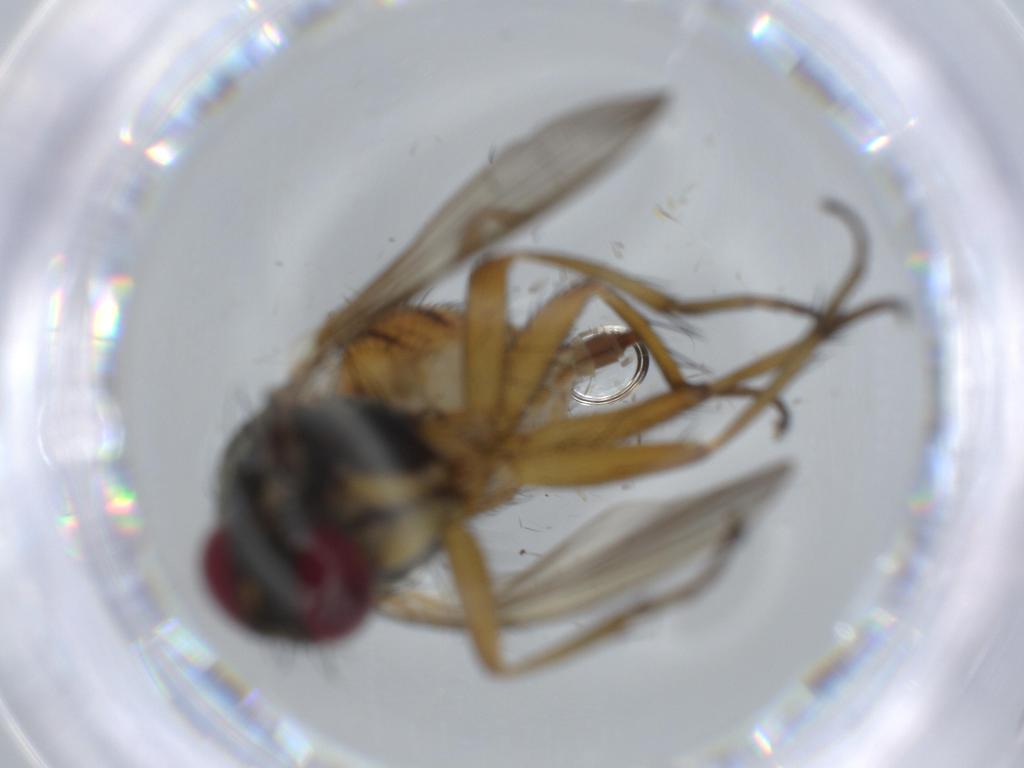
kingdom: Animalia
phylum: Arthropoda
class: Insecta
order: Diptera
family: Muscidae
